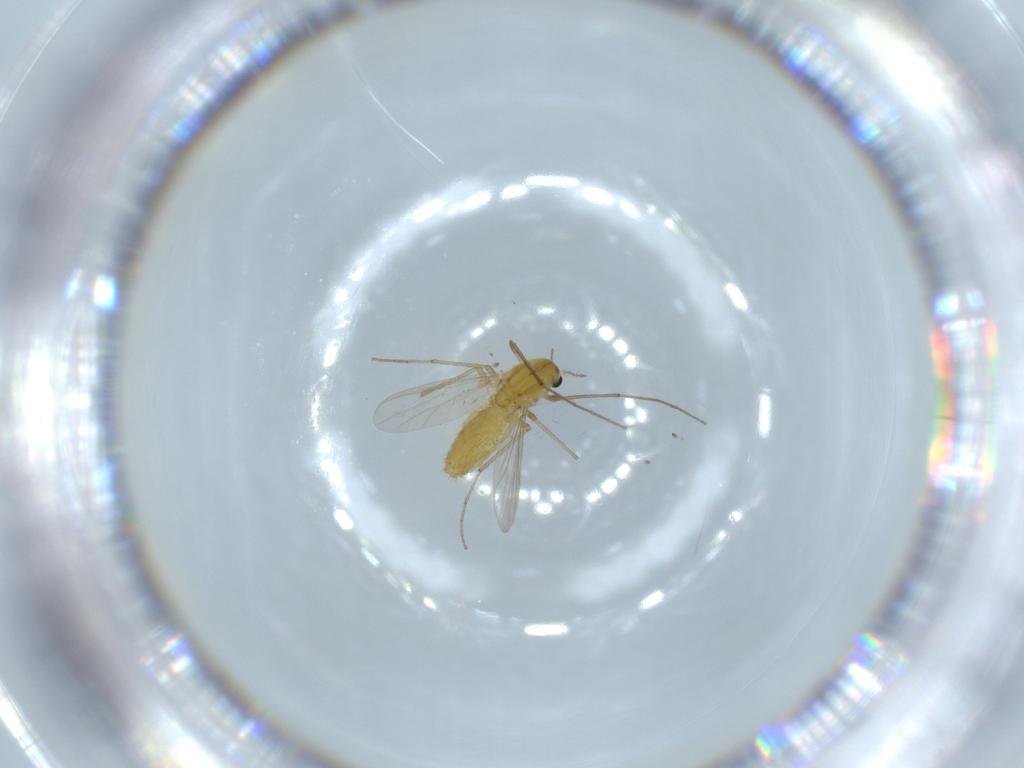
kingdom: Animalia
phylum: Arthropoda
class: Insecta
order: Diptera
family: Chironomidae
